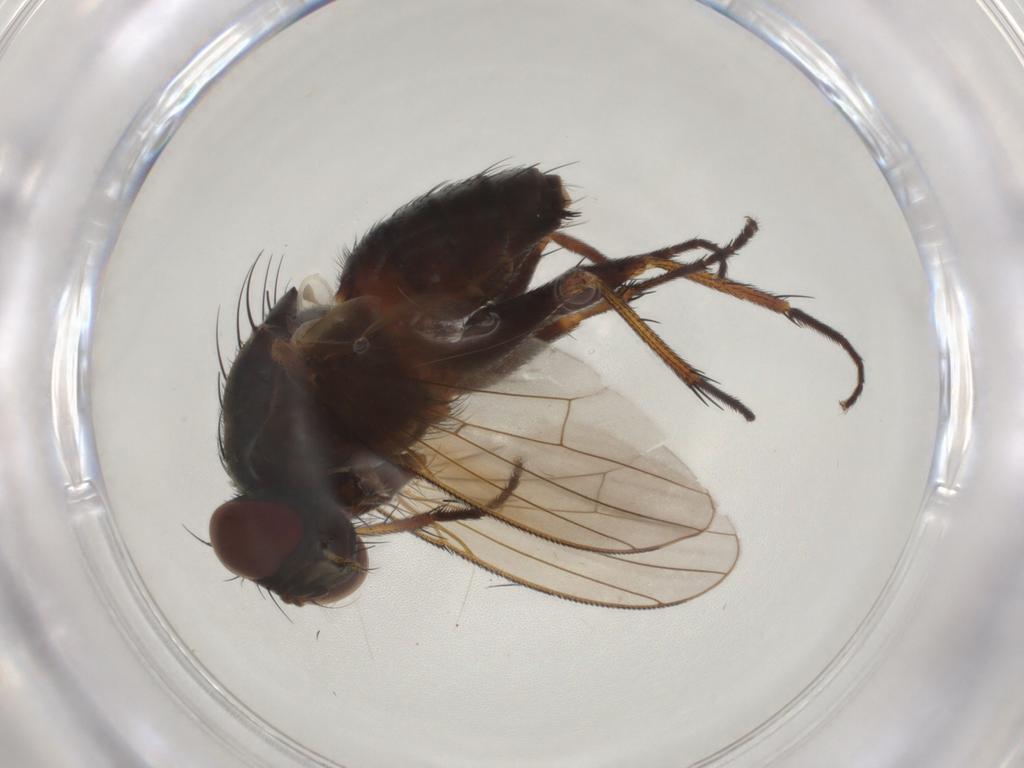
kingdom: Animalia
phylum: Arthropoda
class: Insecta
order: Diptera
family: Muscidae
